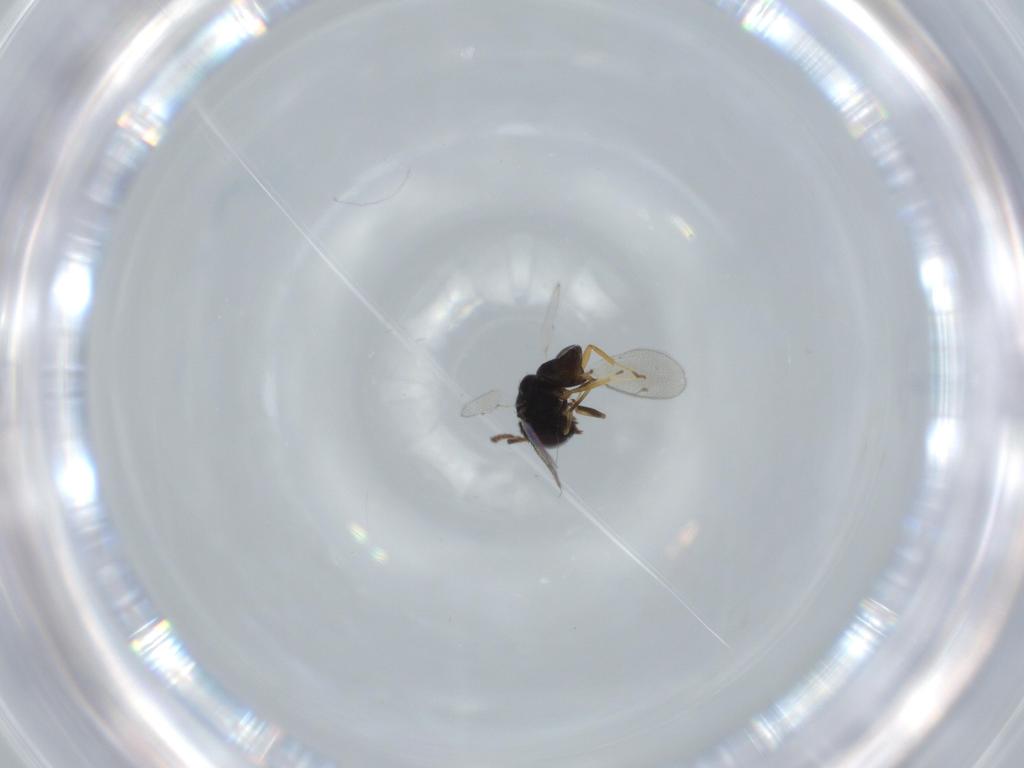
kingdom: Animalia
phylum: Arthropoda
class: Insecta
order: Hymenoptera
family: Pteromalidae
